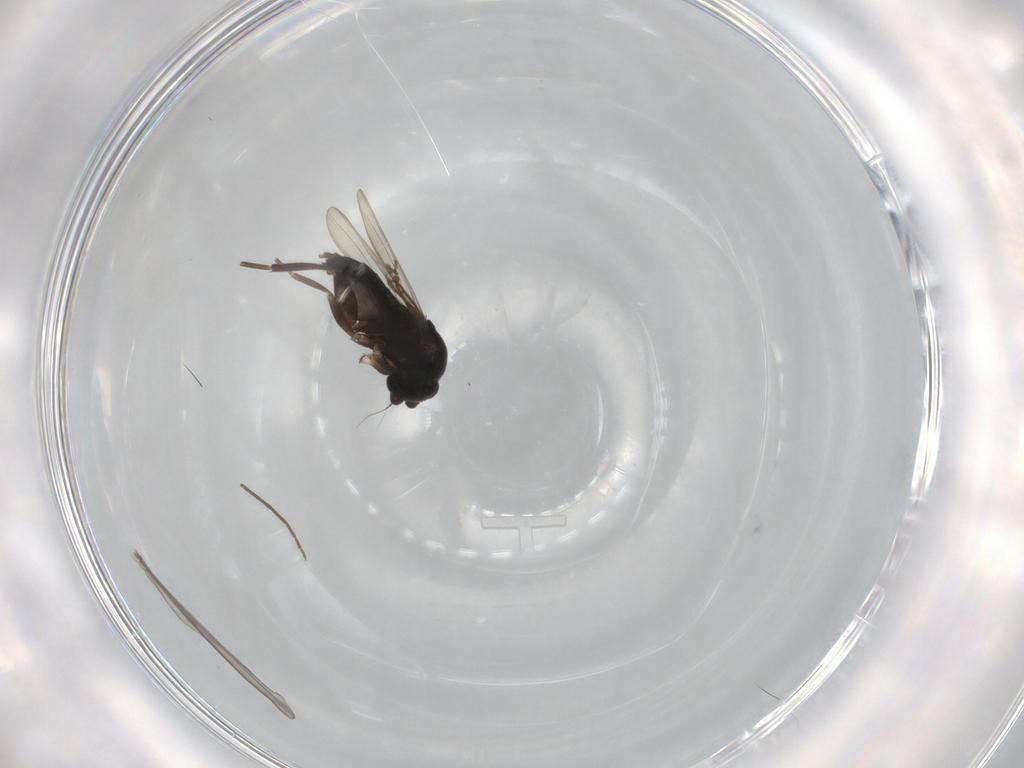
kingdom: Animalia
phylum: Arthropoda
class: Insecta
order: Diptera
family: Phoridae
